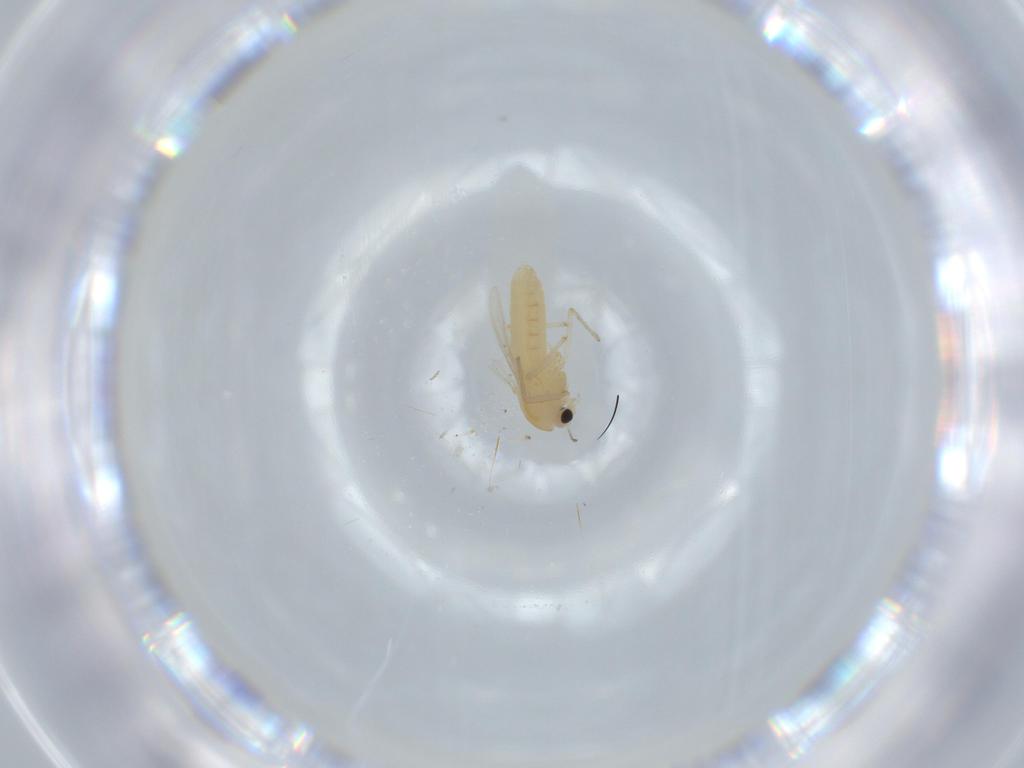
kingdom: Animalia
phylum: Arthropoda
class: Insecta
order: Diptera
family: Chironomidae
